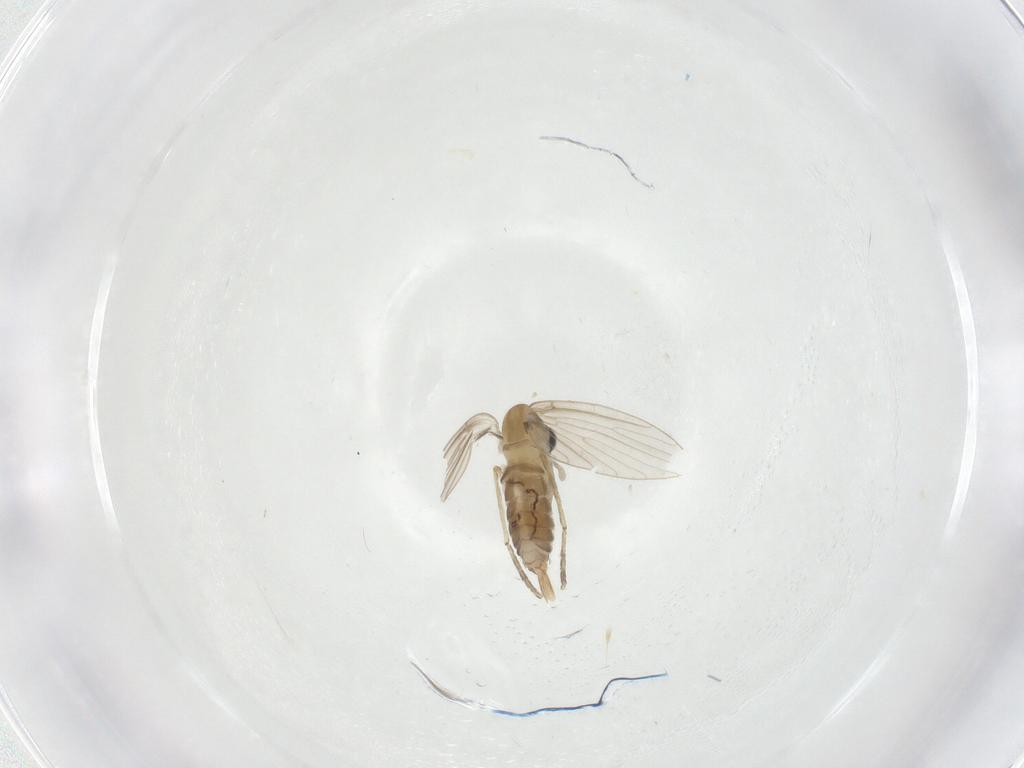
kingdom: Animalia
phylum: Arthropoda
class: Insecta
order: Diptera
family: Psychodidae
